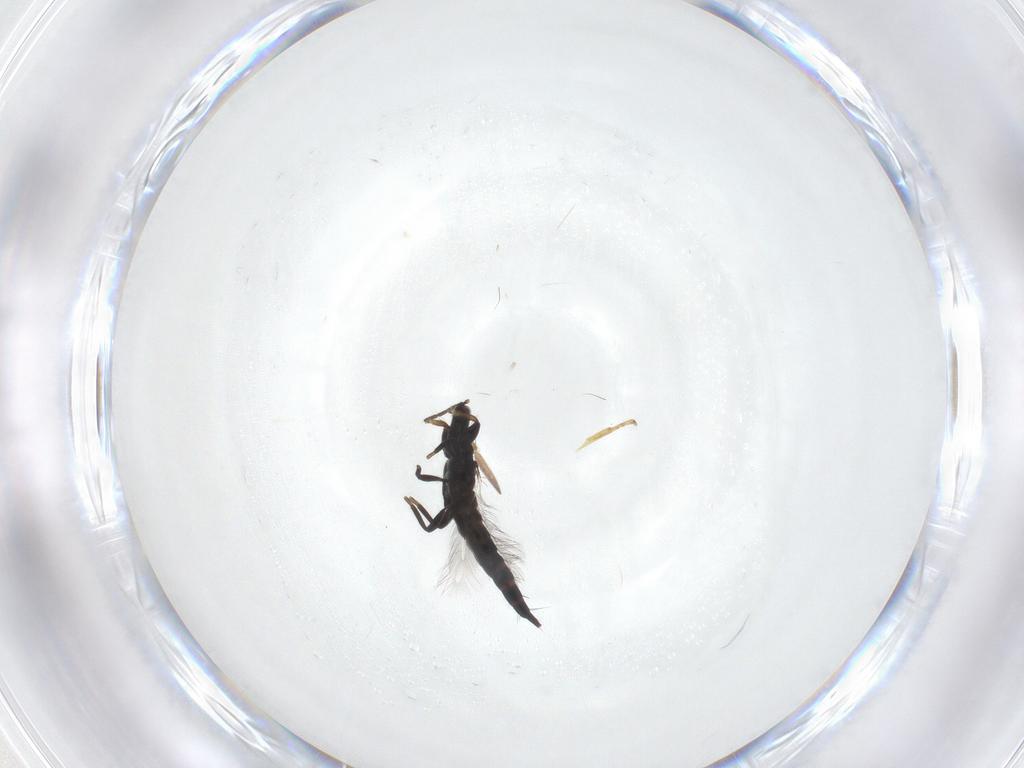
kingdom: Animalia
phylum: Arthropoda
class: Insecta
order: Thysanoptera
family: Phlaeothripidae
